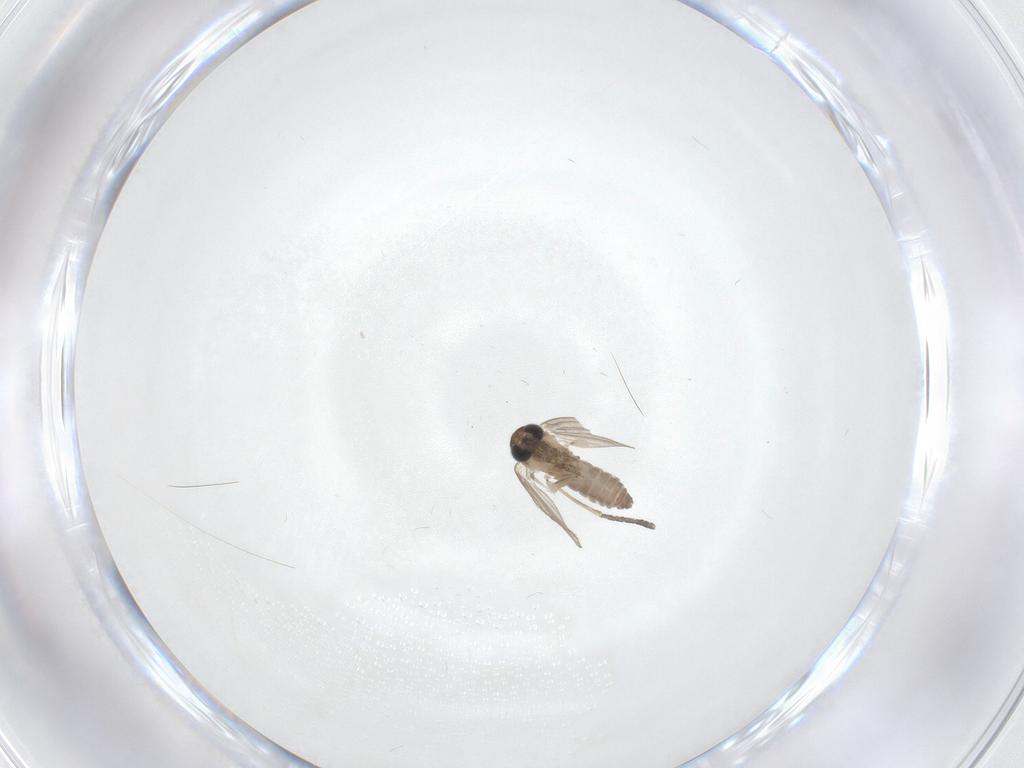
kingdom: Animalia
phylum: Arthropoda
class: Insecta
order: Diptera
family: Psychodidae
